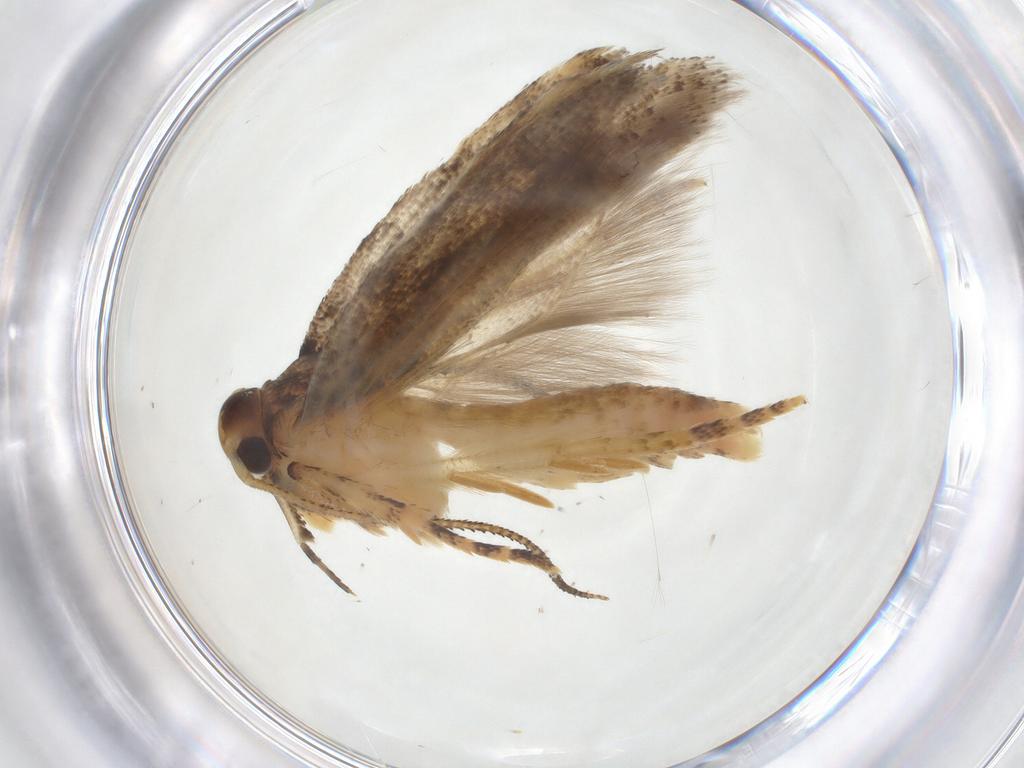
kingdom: Animalia
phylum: Arthropoda
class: Insecta
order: Lepidoptera
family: Gelechiidae
